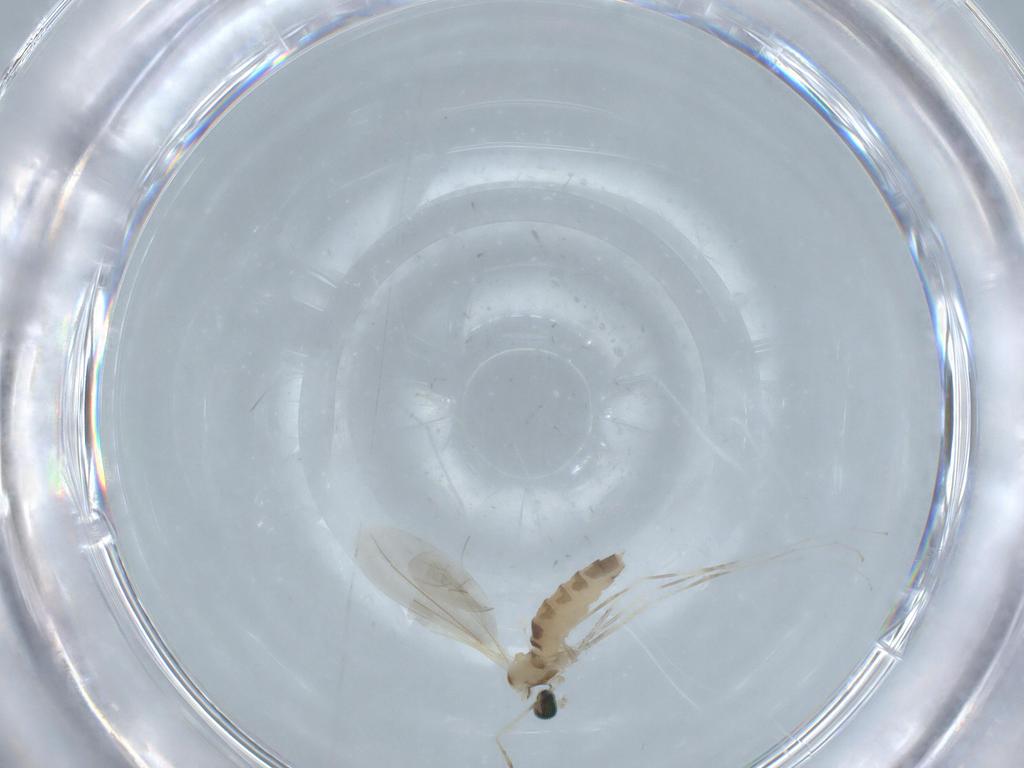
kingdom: Animalia
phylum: Arthropoda
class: Insecta
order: Diptera
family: Cecidomyiidae
